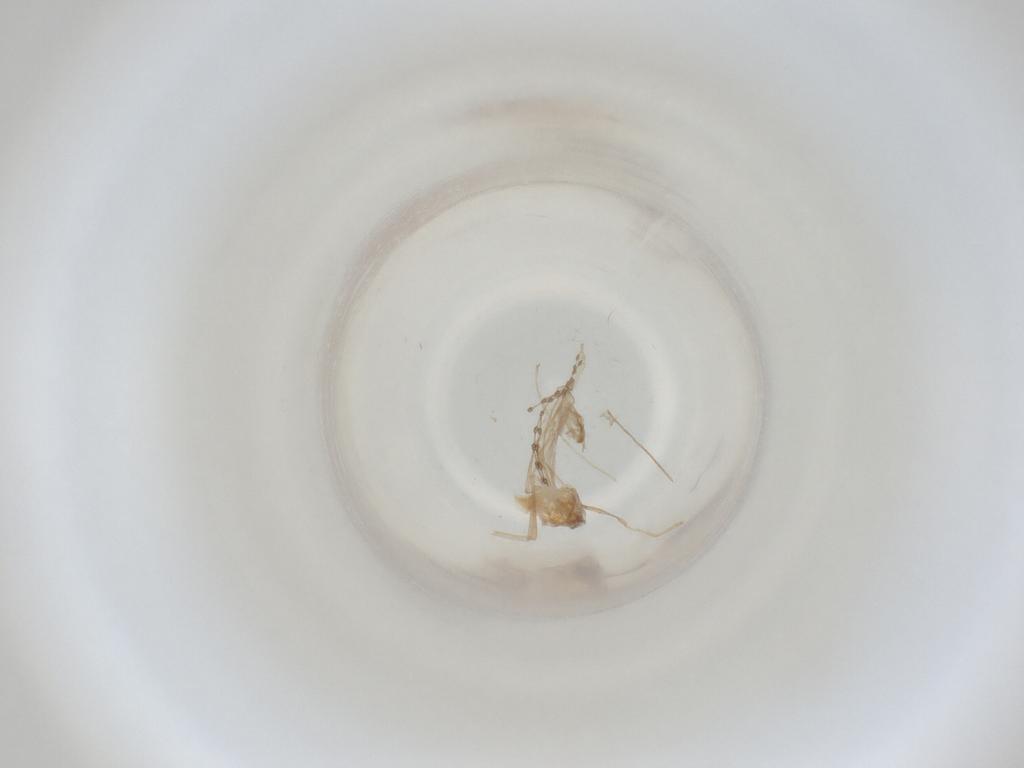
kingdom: Animalia
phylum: Arthropoda
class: Insecta
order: Diptera
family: Cecidomyiidae
